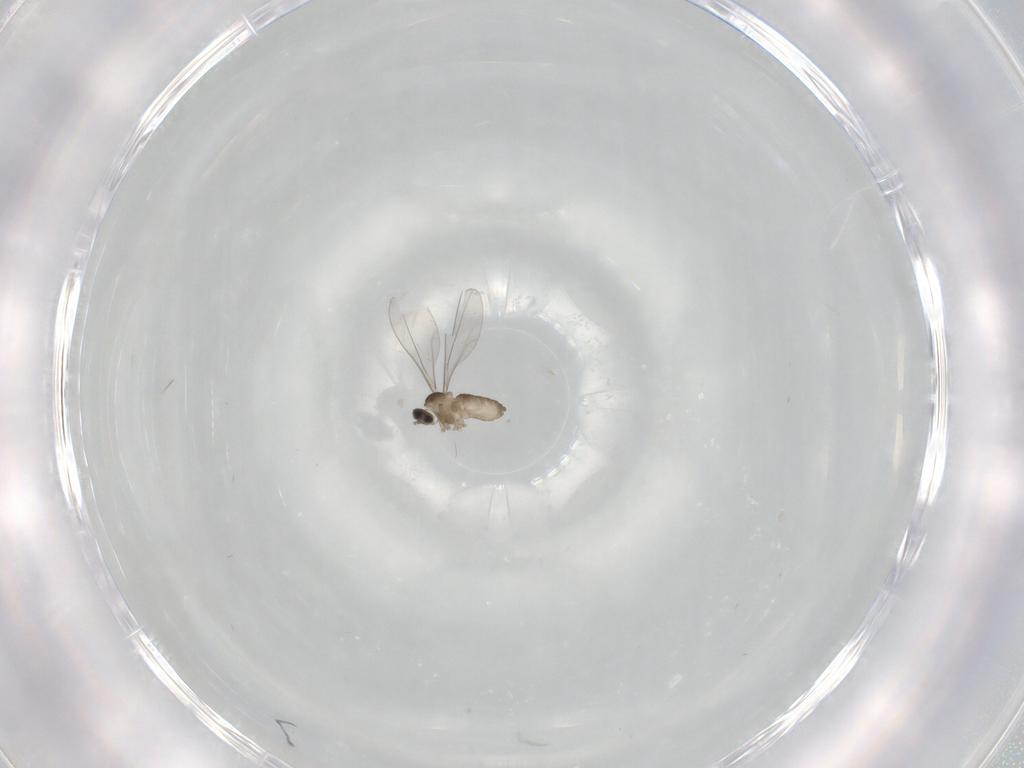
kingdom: Animalia
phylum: Arthropoda
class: Insecta
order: Diptera
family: Cecidomyiidae
